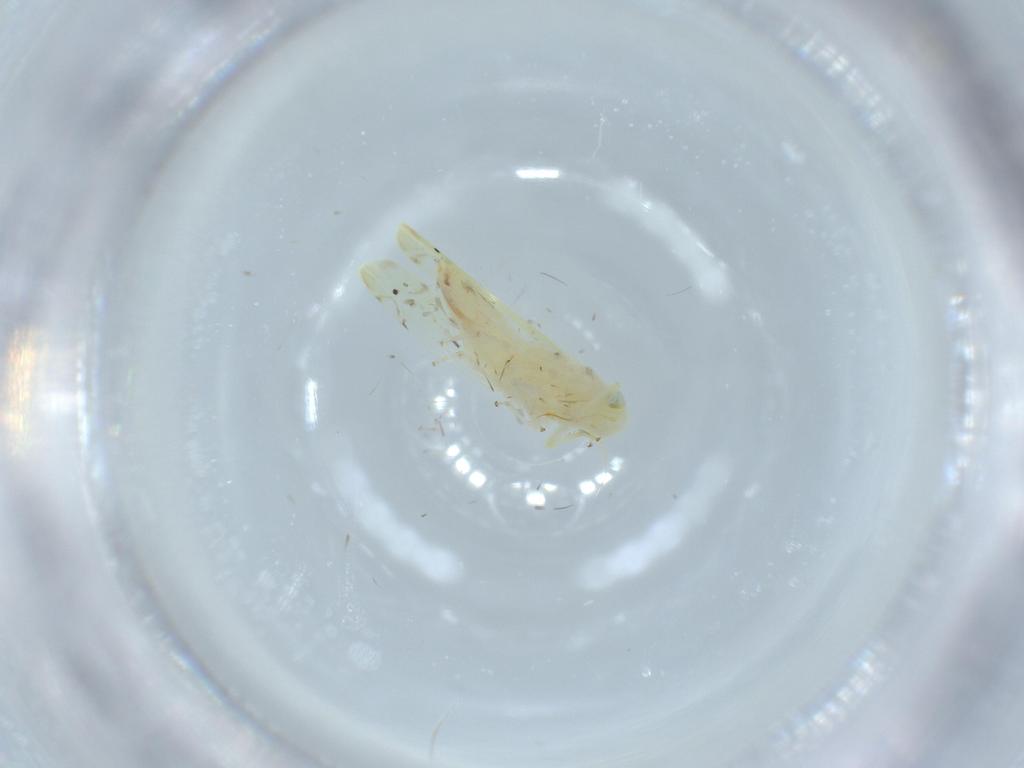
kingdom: Animalia
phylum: Arthropoda
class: Insecta
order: Hemiptera
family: Cicadellidae
